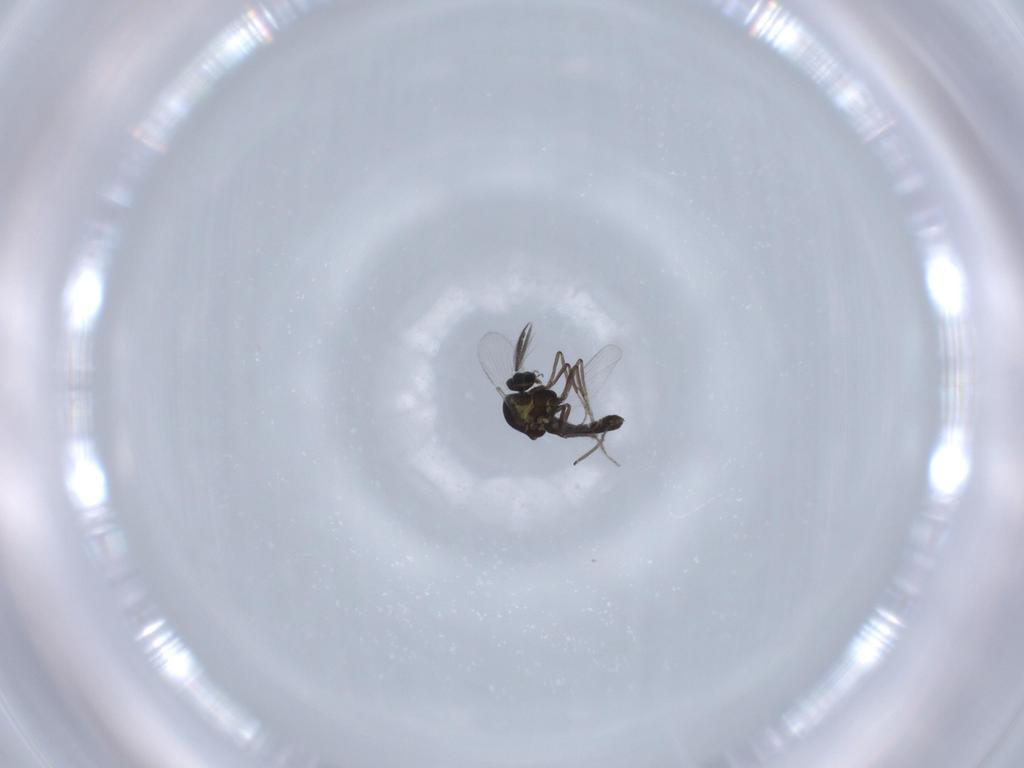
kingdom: Animalia
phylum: Arthropoda
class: Insecta
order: Diptera
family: Ceratopogonidae
